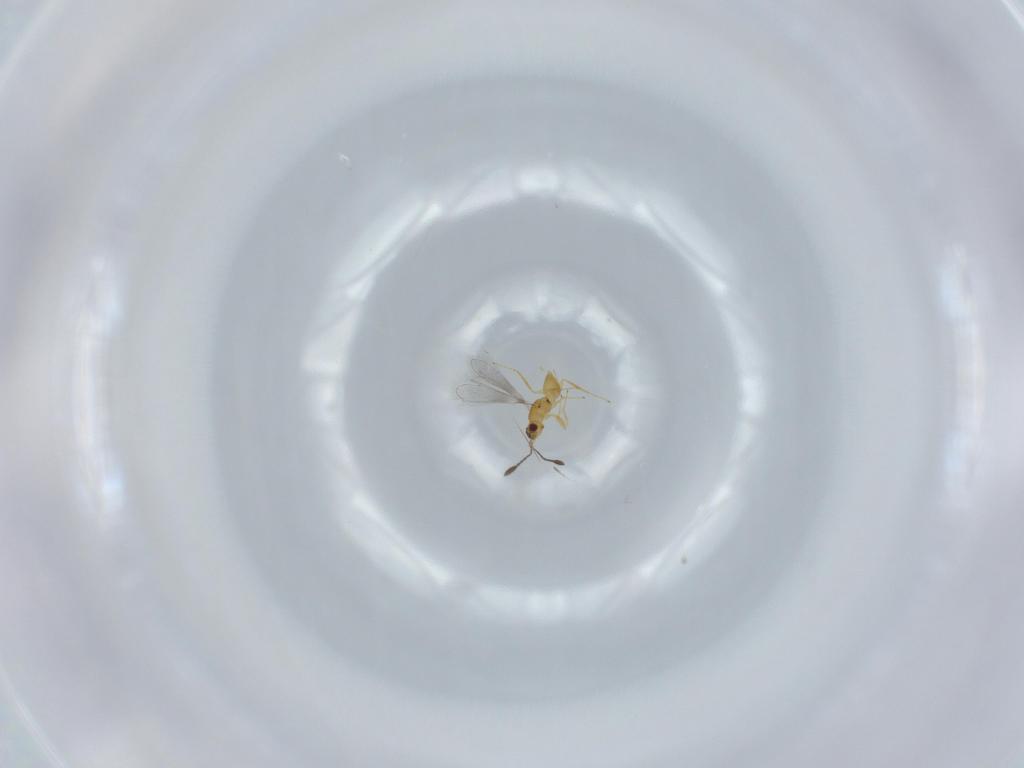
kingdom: Animalia
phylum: Arthropoda
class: Insecta
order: Hymenoptera
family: Mymaridae
